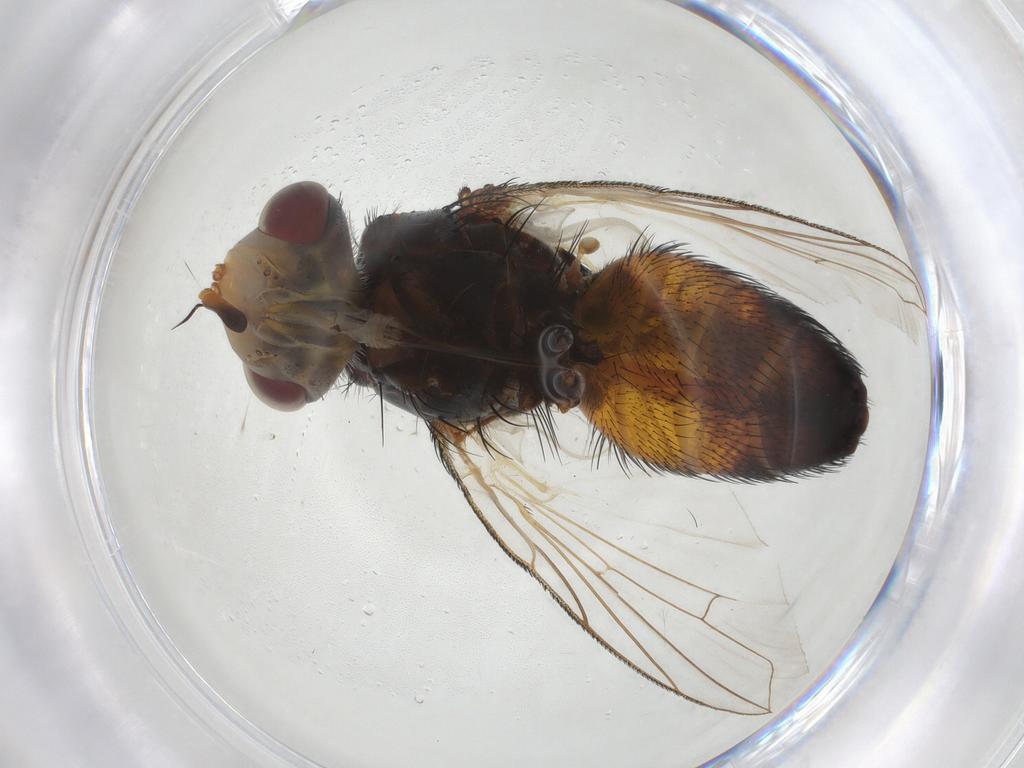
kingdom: Animalia
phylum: Arthropoda
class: Insecta
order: Diptera
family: Tachinidae
